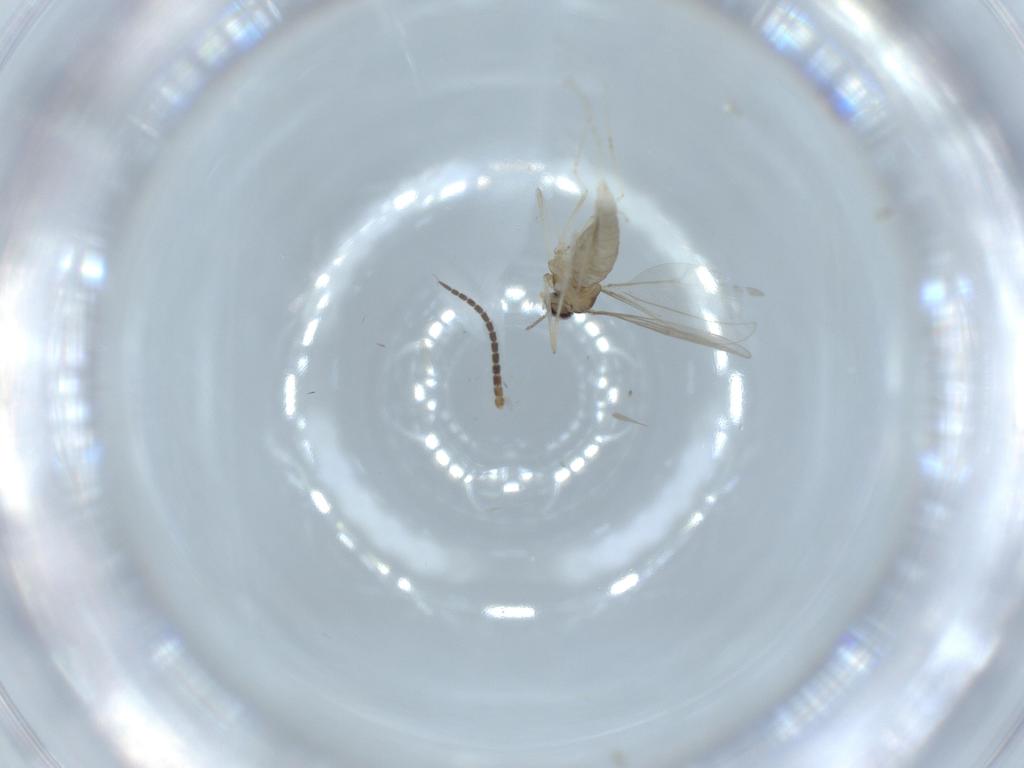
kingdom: Animalia
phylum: Arthropoda
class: Insecta
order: Diptera
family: Cecidomyiidae
